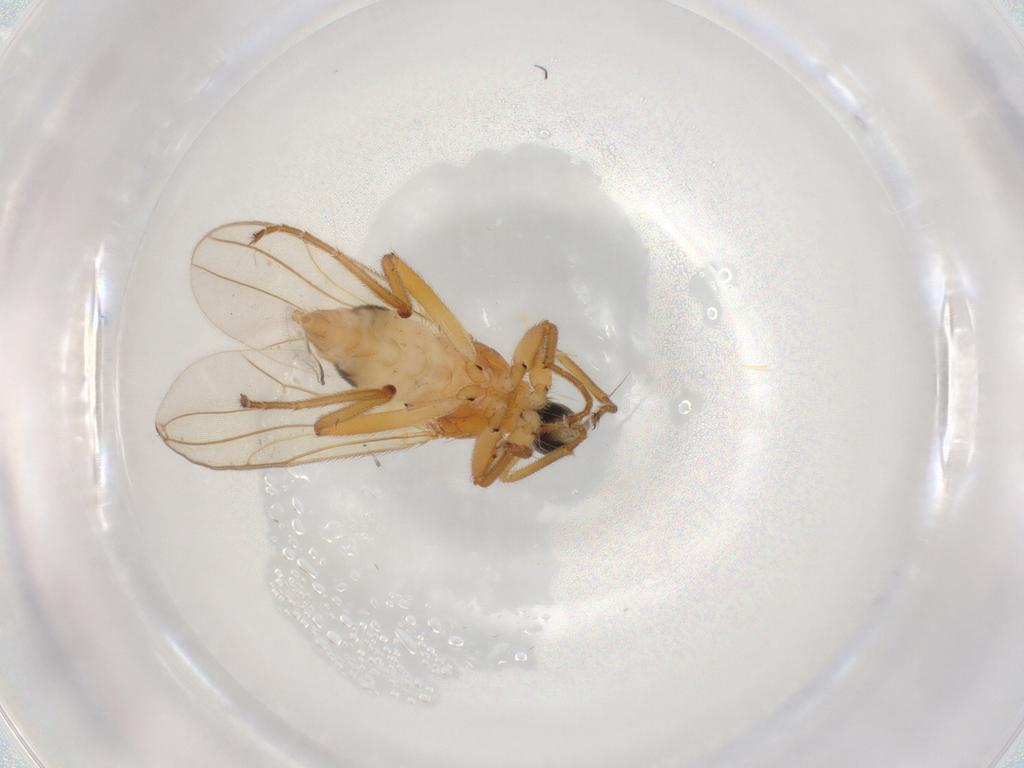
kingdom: Animalia
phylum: Arthropoda
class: Insecta
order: Diptera
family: Hybotidae
